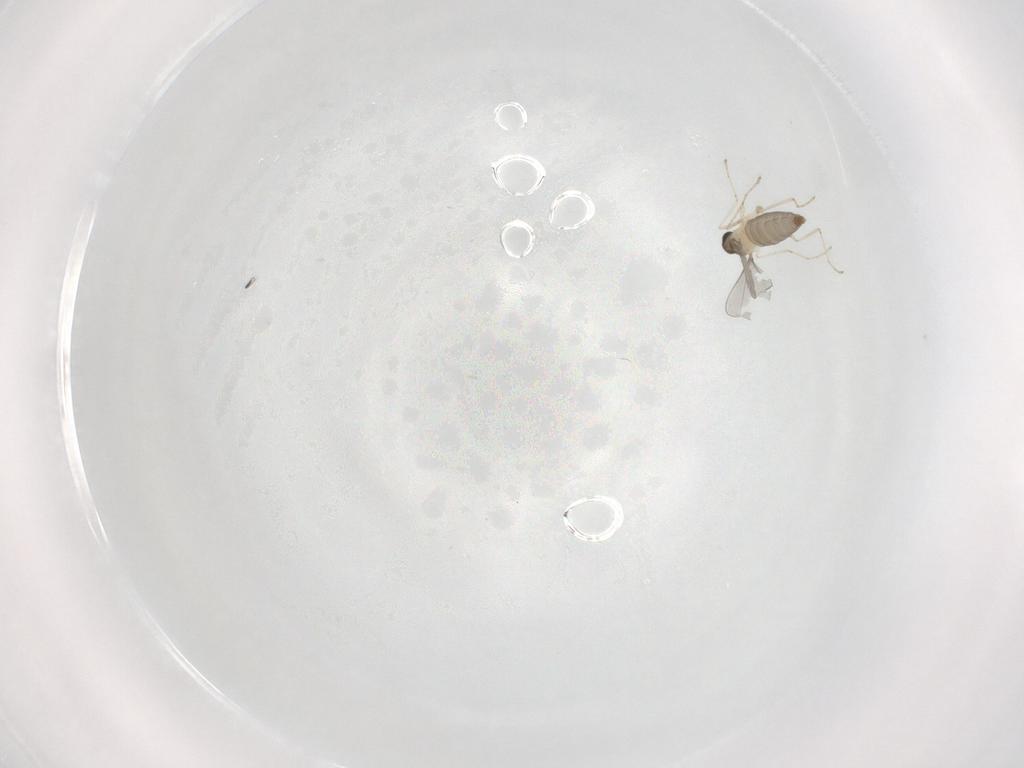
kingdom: Animalia
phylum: Arthropoda
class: Insecta
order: Diptera
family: Cecidomyiidae
